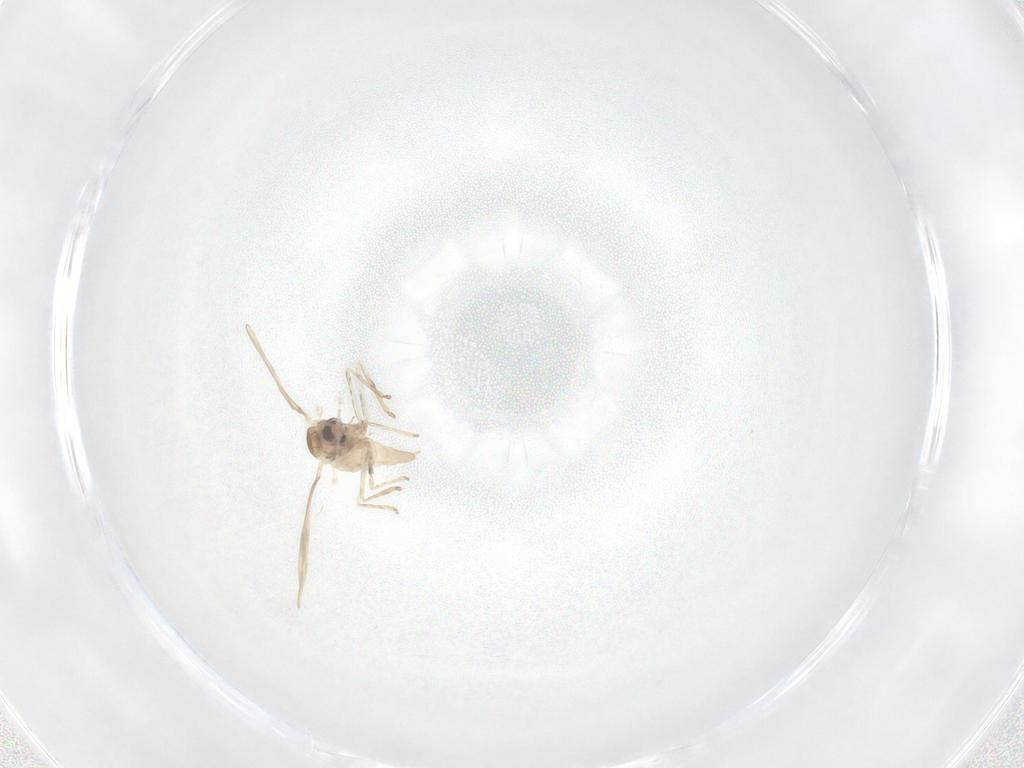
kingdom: Animalia
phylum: Arthropoda
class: Insecta
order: Diptera
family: Cecidomyiidae
